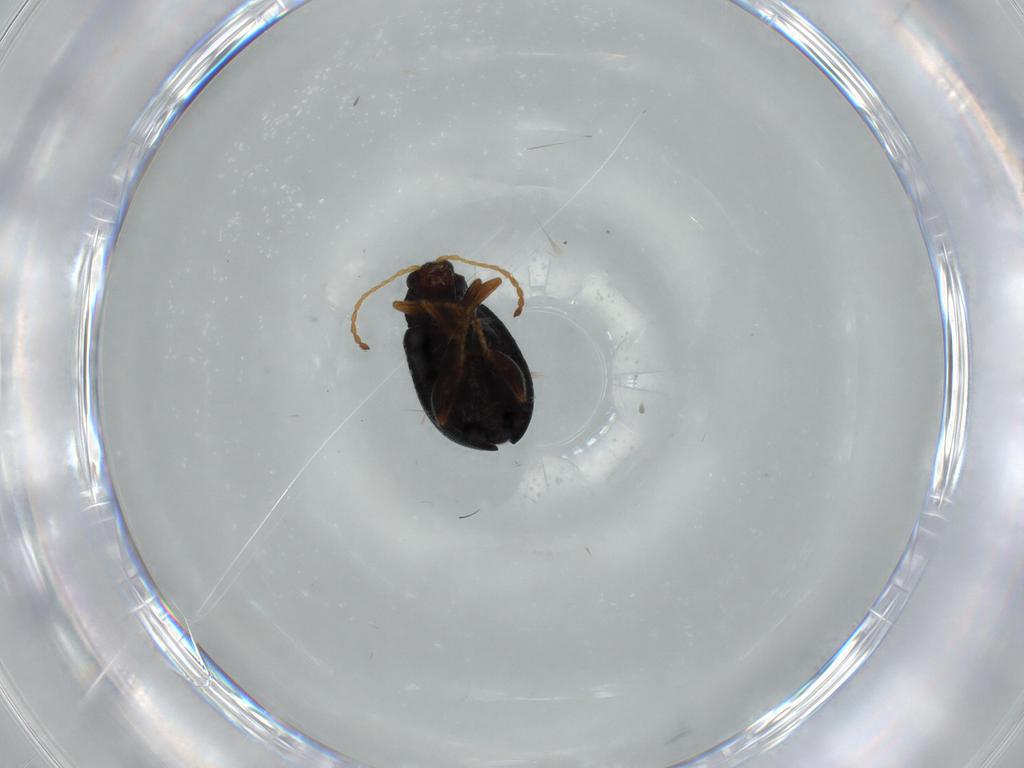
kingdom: Animalia
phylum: Arthropoda
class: Insecta
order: Coleoptera
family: Chrysomelidae
